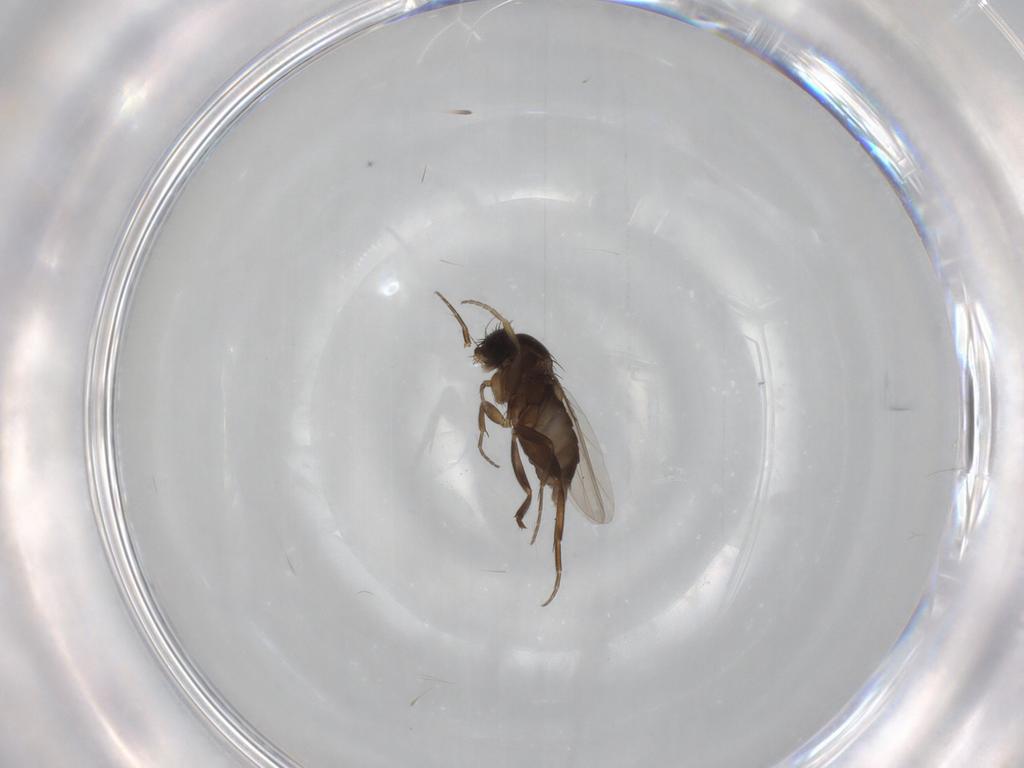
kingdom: Animalia
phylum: Arthropoda
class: Insecta
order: Diptera
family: Phoridae
